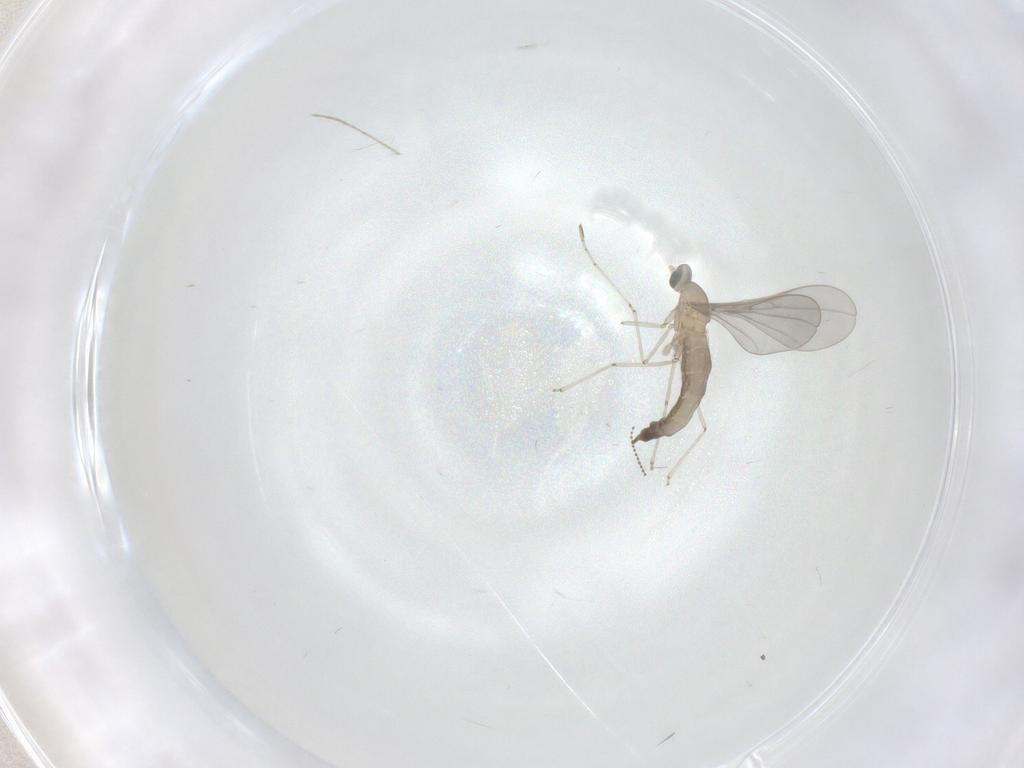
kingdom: Animalia
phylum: Arthropoda
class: Insecta
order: Diptera
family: Cecidomyiidae
